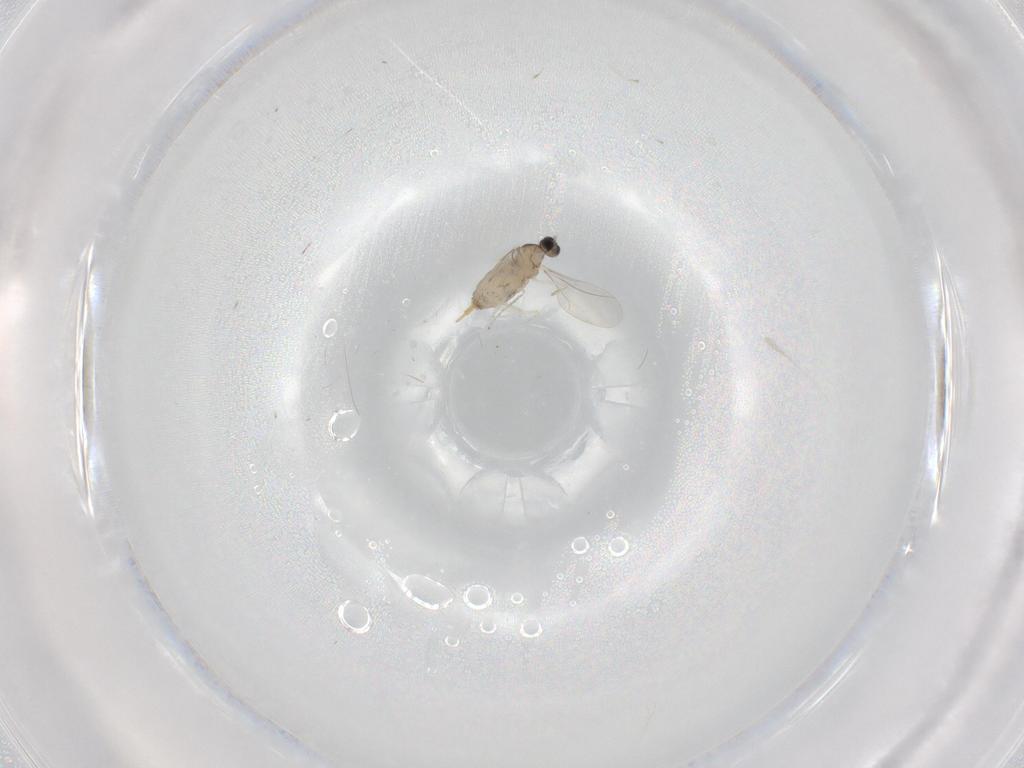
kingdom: Animalia
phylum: Arthropoda
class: Insecta
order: Diptera
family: Cecidomyiidae
